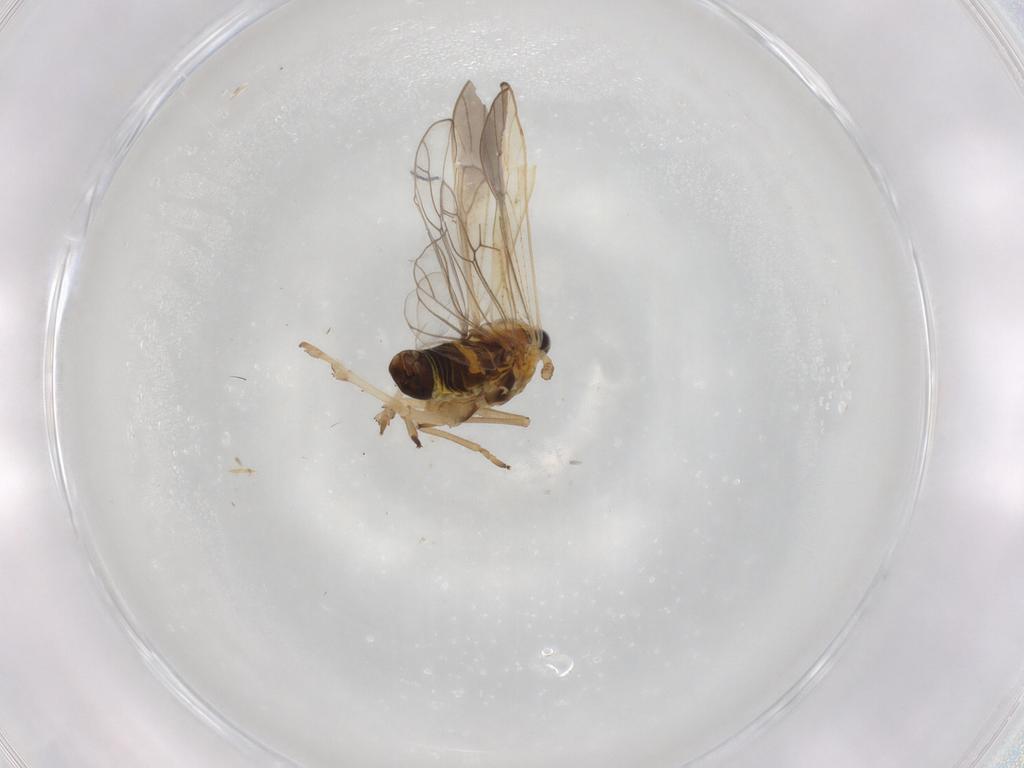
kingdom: Animalia
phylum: Arthropoda
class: Insecta
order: Hemiptera
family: Delphacidae
